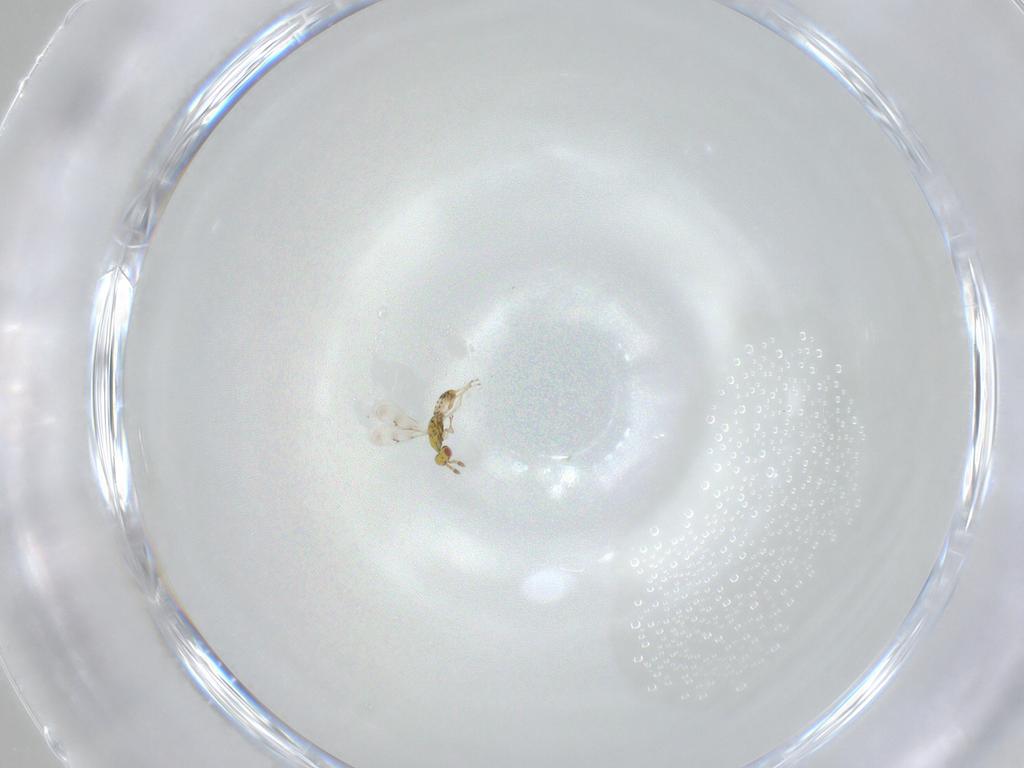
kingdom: Animalia
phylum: Arthropoda
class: Insecta
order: Hymenoptera
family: Eulophidae
